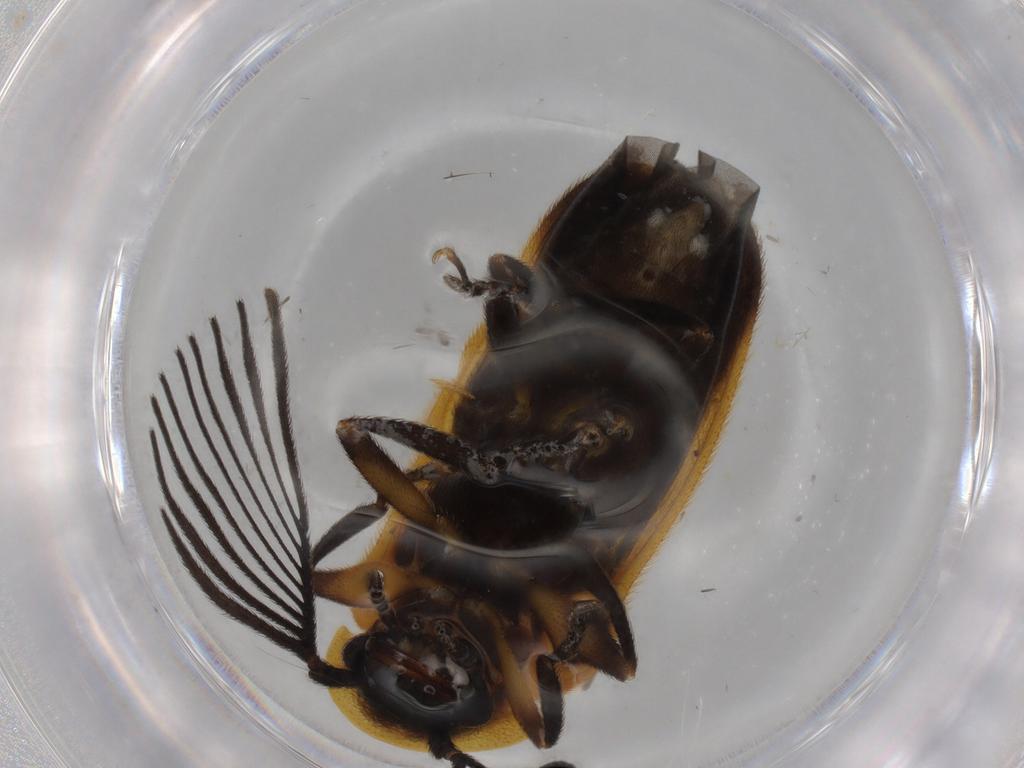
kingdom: Animalia
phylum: Arthropoda
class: Insecta
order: Coleoptera
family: Lampyridae
